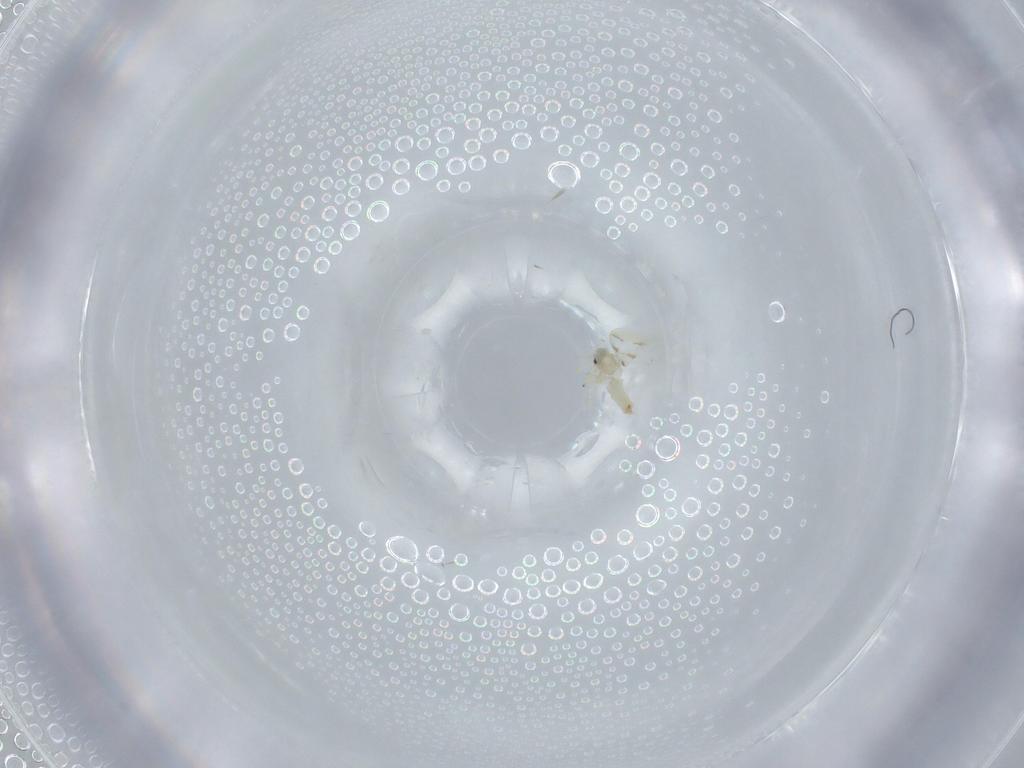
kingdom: Animalia
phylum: Arthropoda
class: Insecta
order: Hemiptera
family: Aleyrodidae
